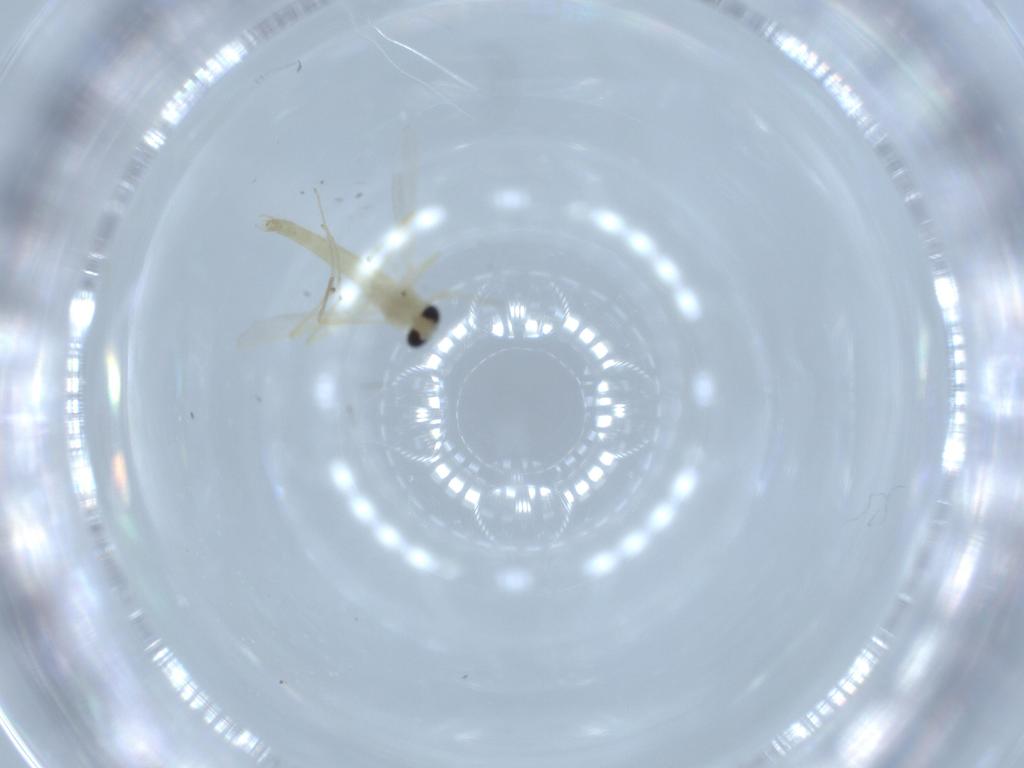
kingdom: Animalia
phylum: Arthropoda
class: Insecta
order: Diptera
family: Chironomidae
